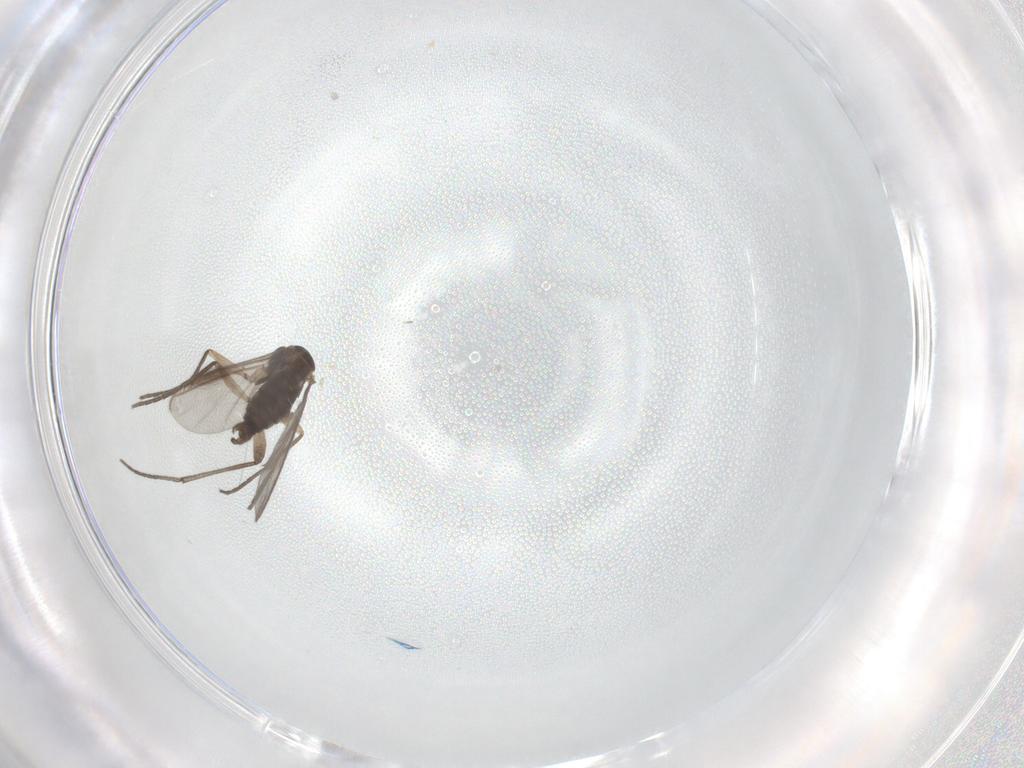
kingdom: Animalia
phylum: Arthropoda
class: Insecta
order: Diptera
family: Sciaridae
